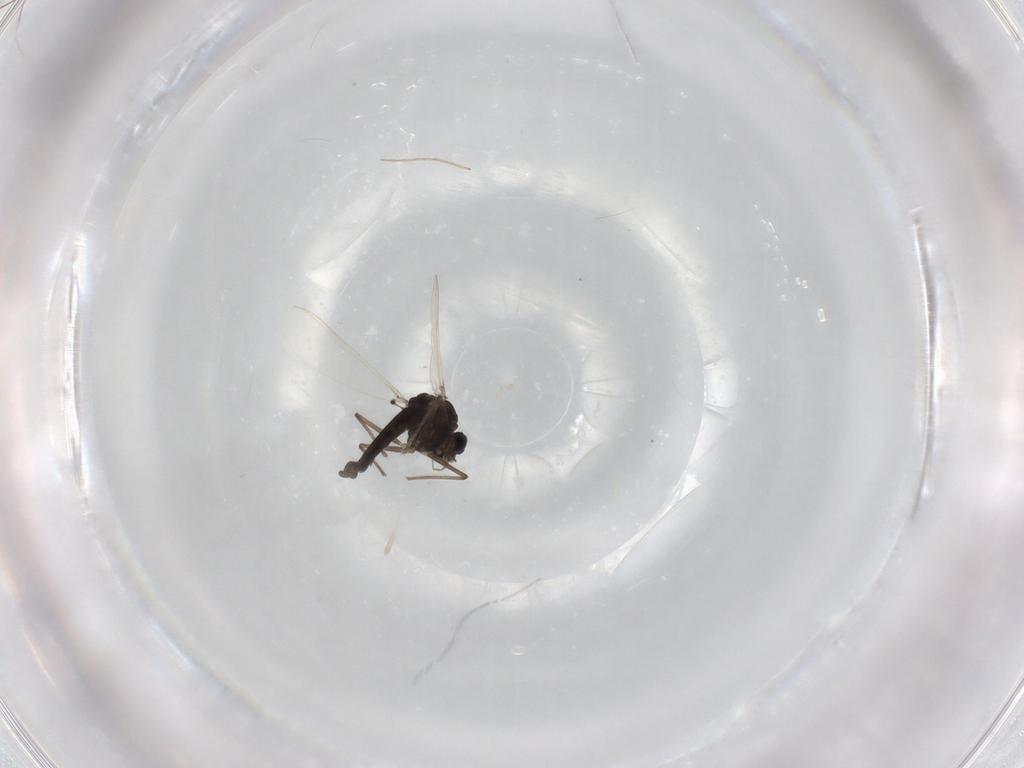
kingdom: Animalia
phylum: Arthropoda
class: Insecta
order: Diptera
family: Chironomidae
